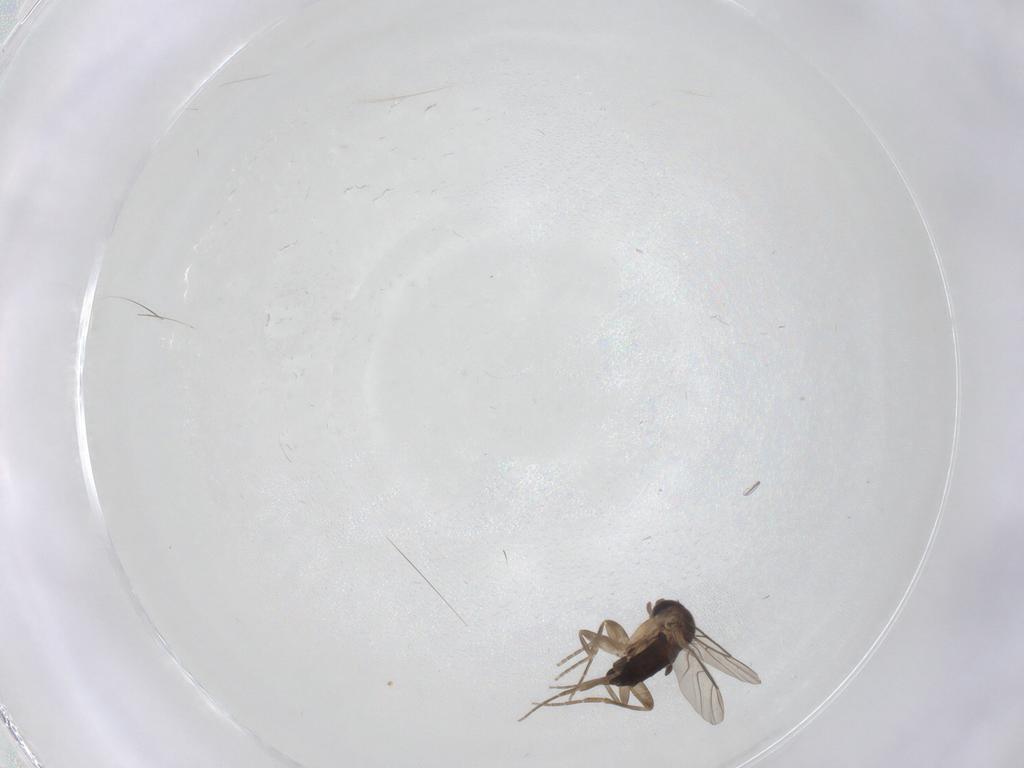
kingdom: Animalia
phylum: Arthropoda
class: Insecta
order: Diptera
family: Phoridae
